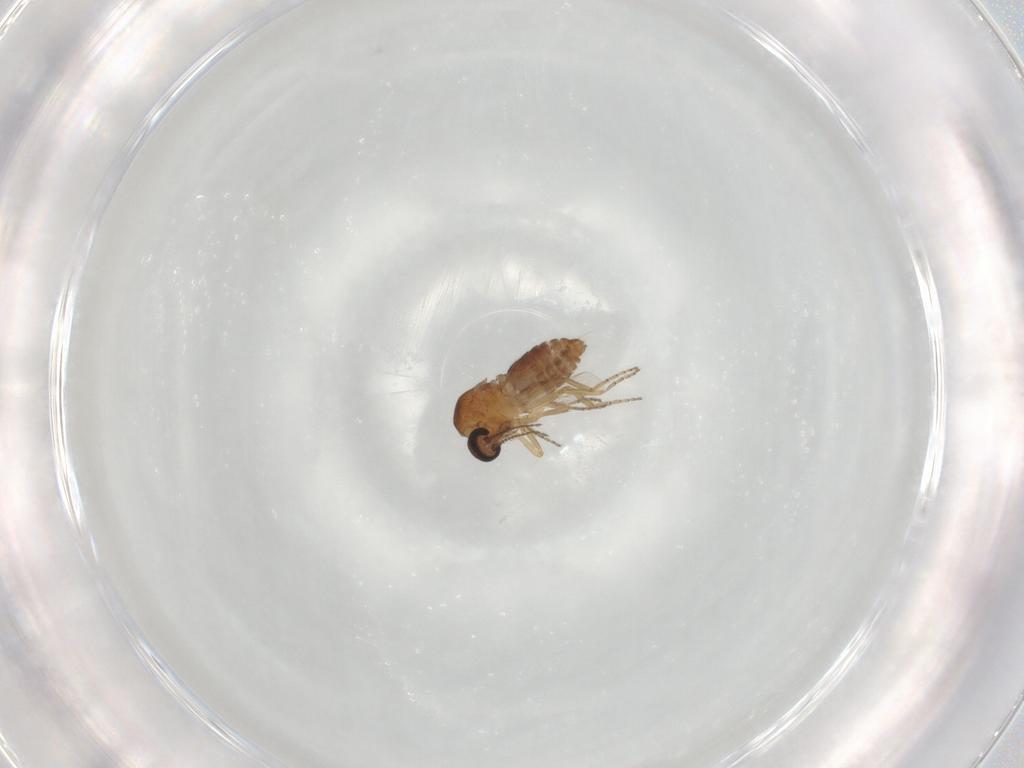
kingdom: Animalia
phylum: Arthropoda
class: Insecta
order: Diptera
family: Ceratopogonidae
